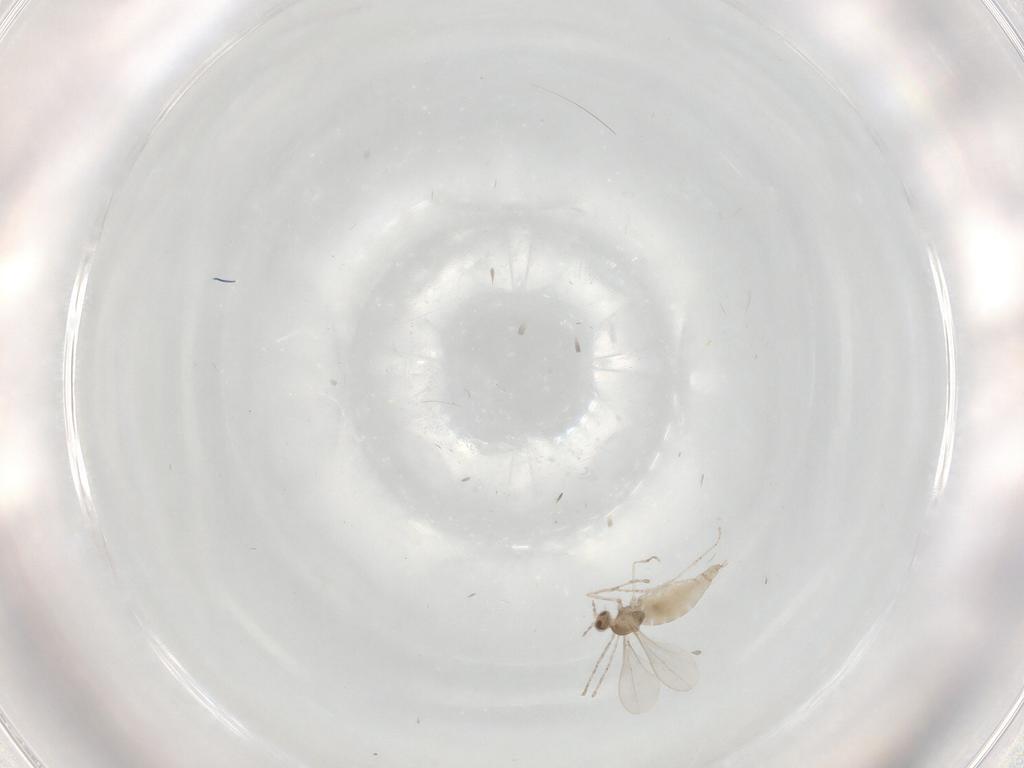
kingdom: Animalia
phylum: Arthropoda
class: Insecta
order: Diptera
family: Cecidomyiidae
